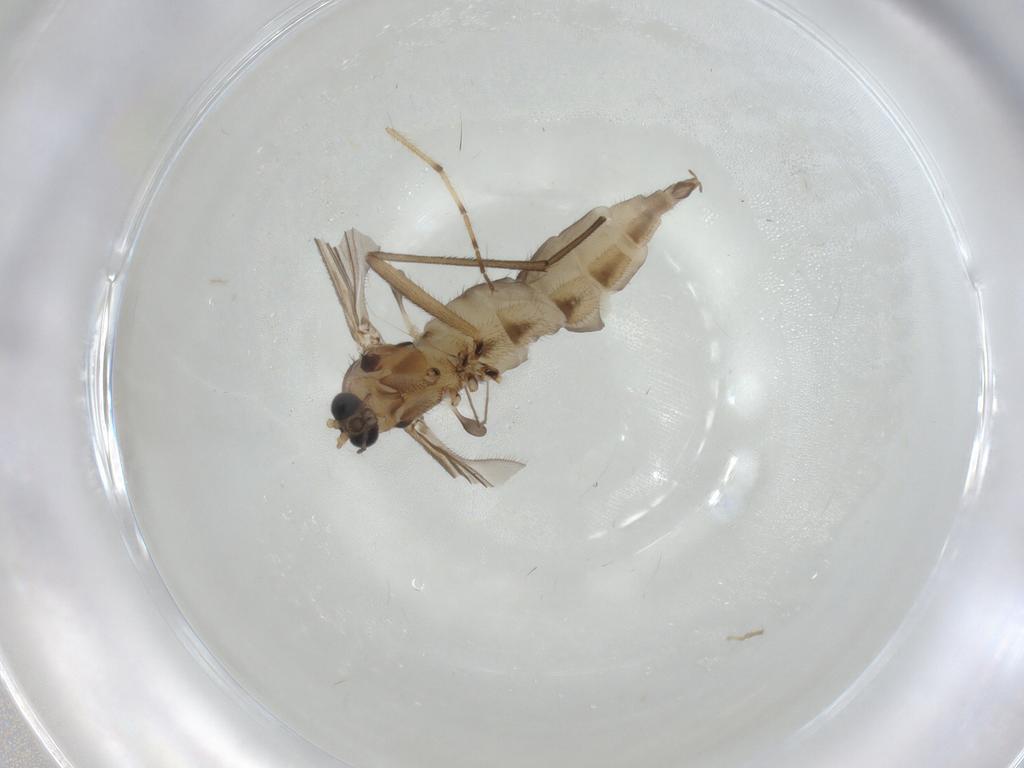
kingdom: Animalia
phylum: Arthropoda
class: Insecta
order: Diptera
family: Sciaridae
